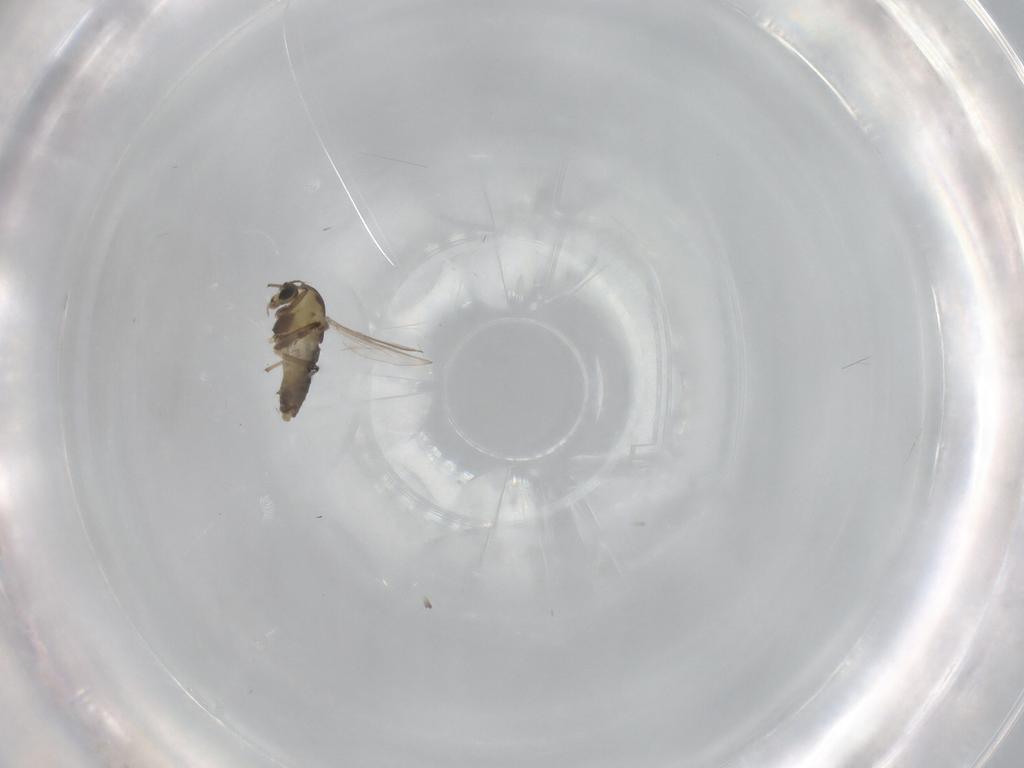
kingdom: Animalia
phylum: Arthropoda
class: Insecta
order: Diptera
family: Chironomidae
